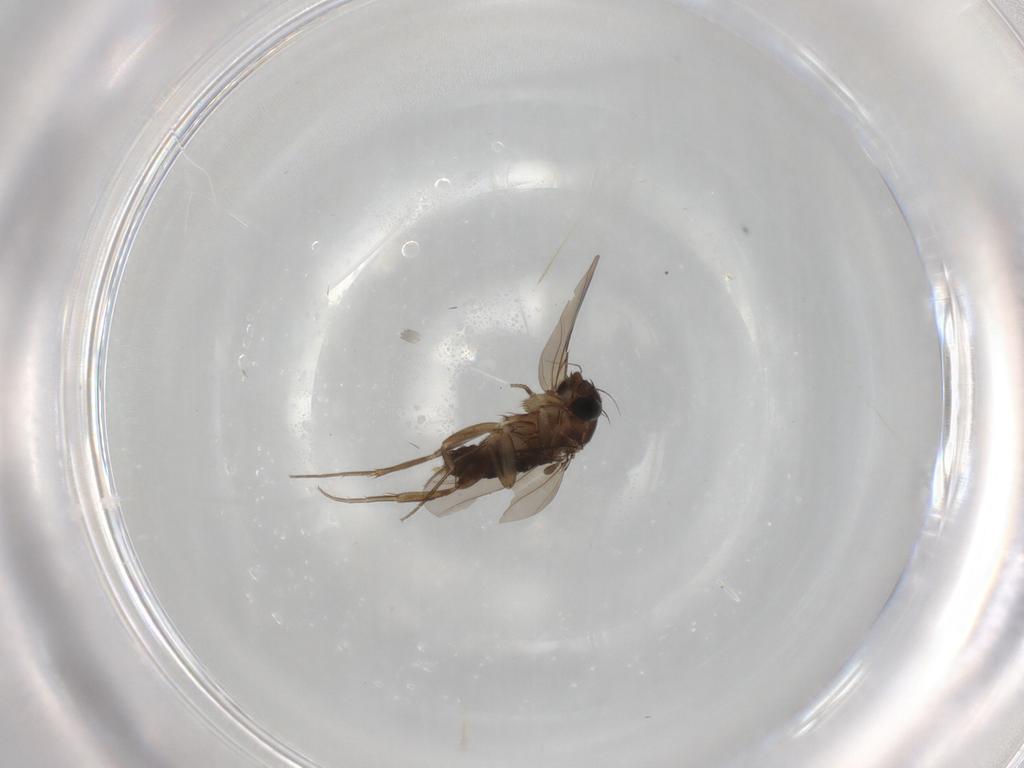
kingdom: Animalia
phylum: Arthropoda
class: Insecta
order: Diptera
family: Phoridae
